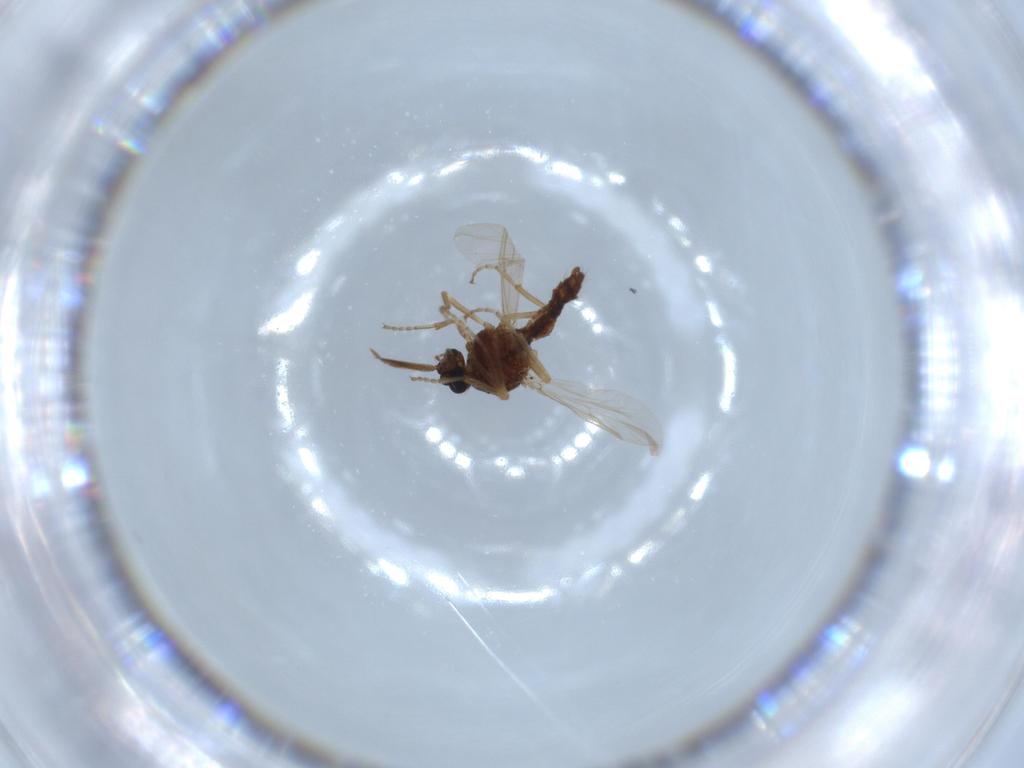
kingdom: Animalia
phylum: Arthropoda
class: Insecta
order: Diptera
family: Ceratopogonidae
